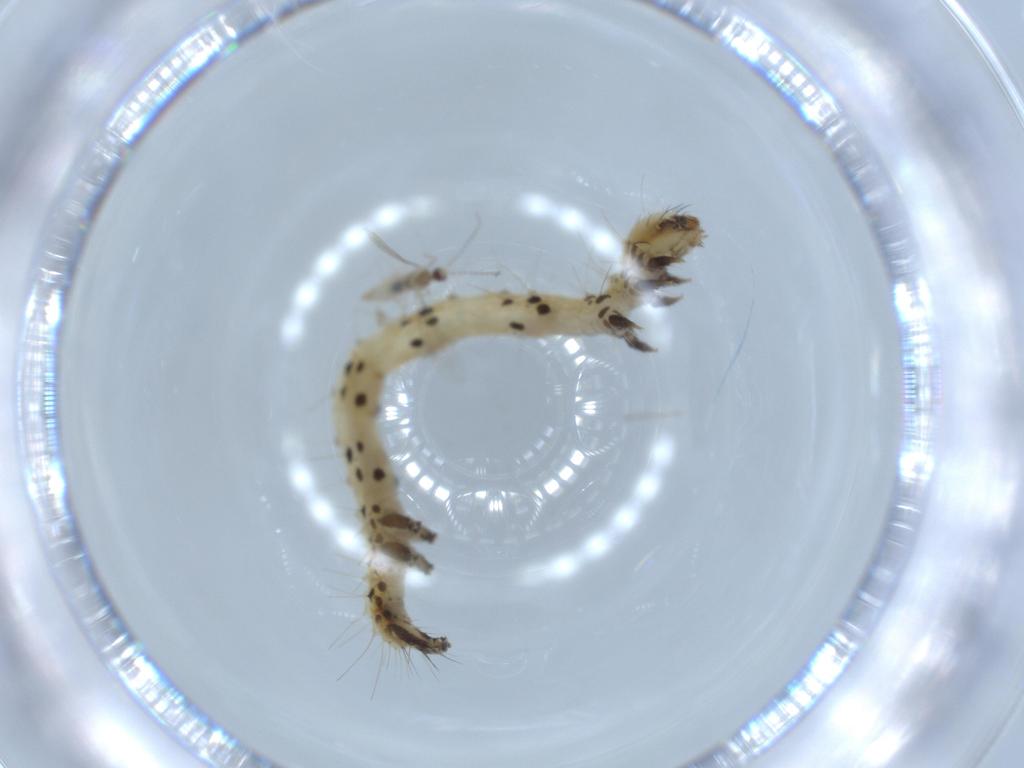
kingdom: Animalia
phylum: Arthropoda
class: Insecta
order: Diptera
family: Cecidomyiidae
